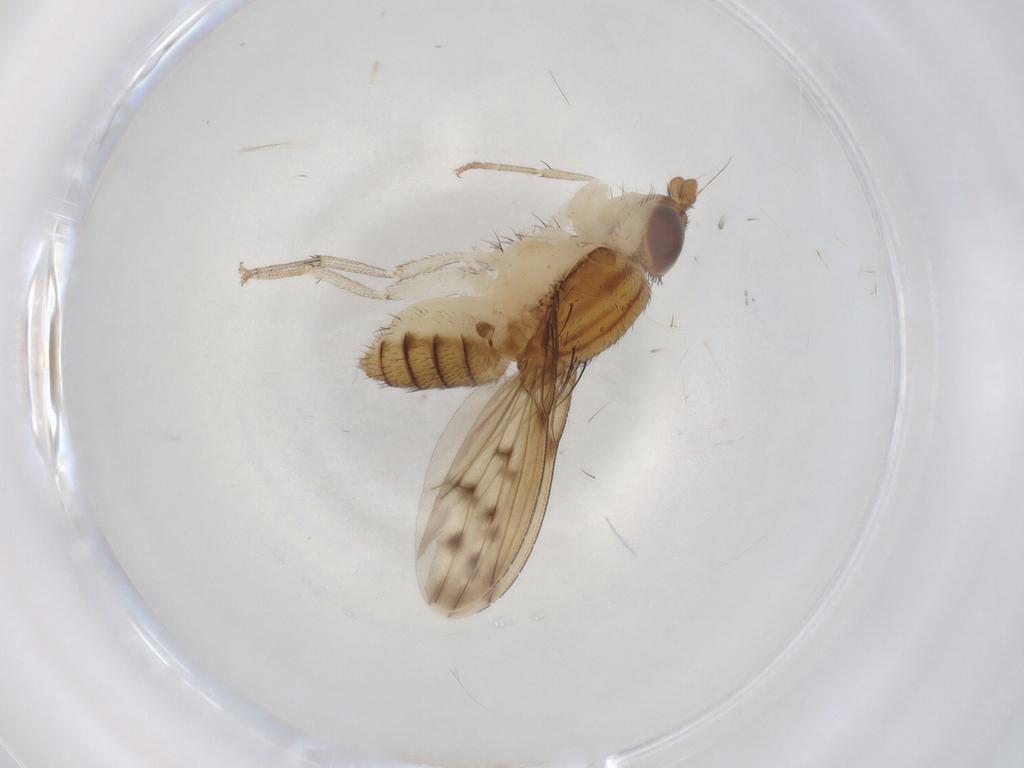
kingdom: Animalia
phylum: Arthropoda
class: Insecta
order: Diptera
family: Lauxaniidae
